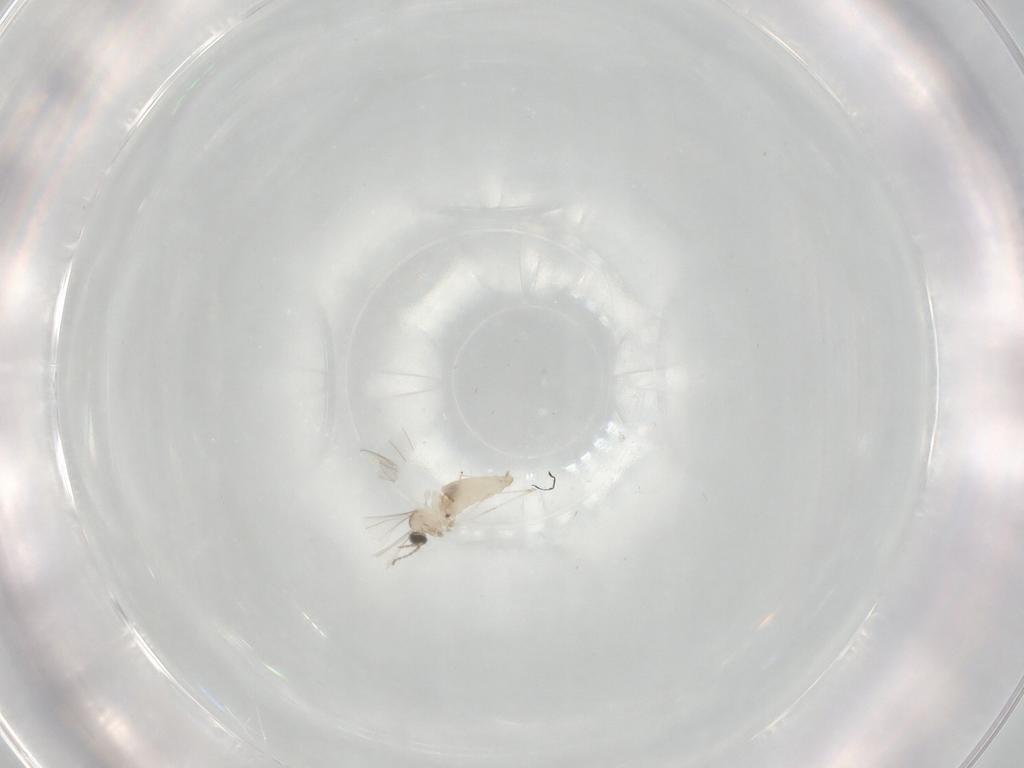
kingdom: Animalia
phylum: Arthropoda
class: Insecta
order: Diptera
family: Cecidomyiidae
